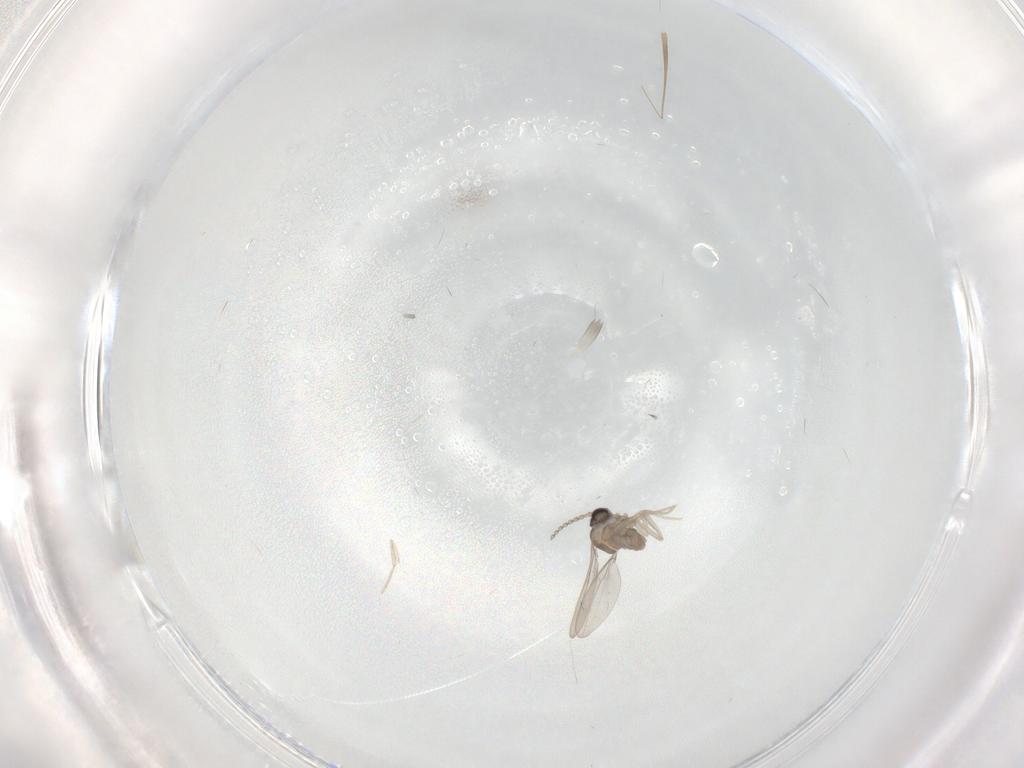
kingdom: Animalia
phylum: Arthropoda
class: Insecta
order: Diptera
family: Cecidomyiidae
